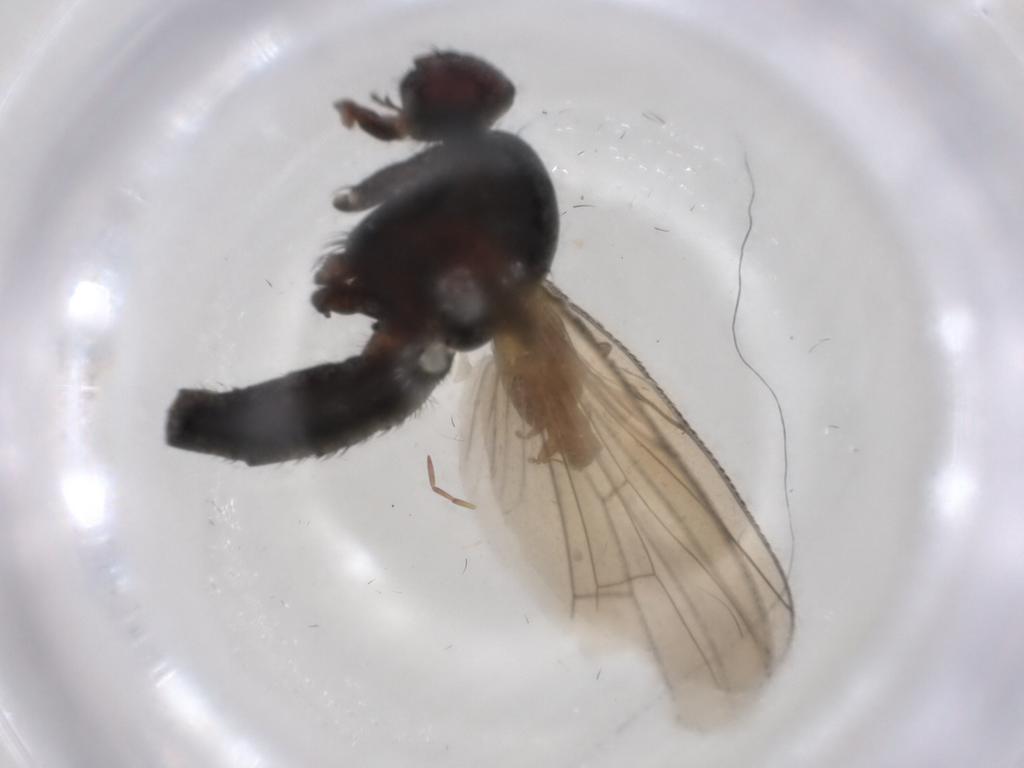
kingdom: Animalia
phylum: Arthropoda
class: Insecta
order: Diptera
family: Anthomyiidae
